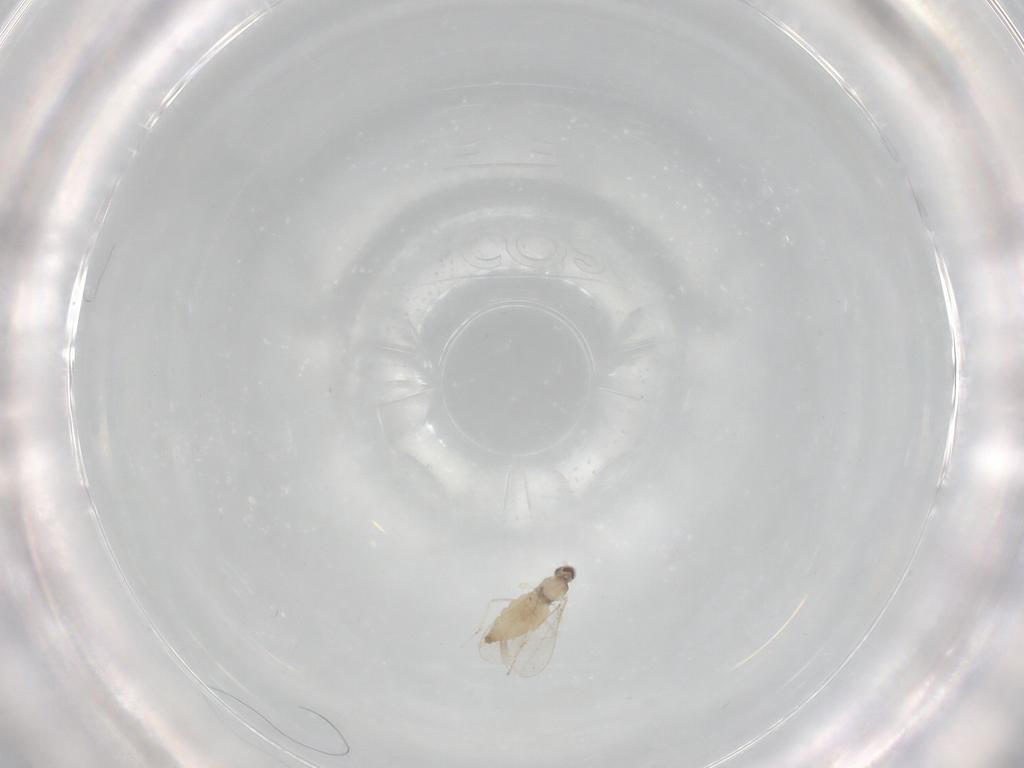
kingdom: Animalia
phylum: Arthropoda
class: Insecta
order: Diptera
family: Cecidomyiidae
